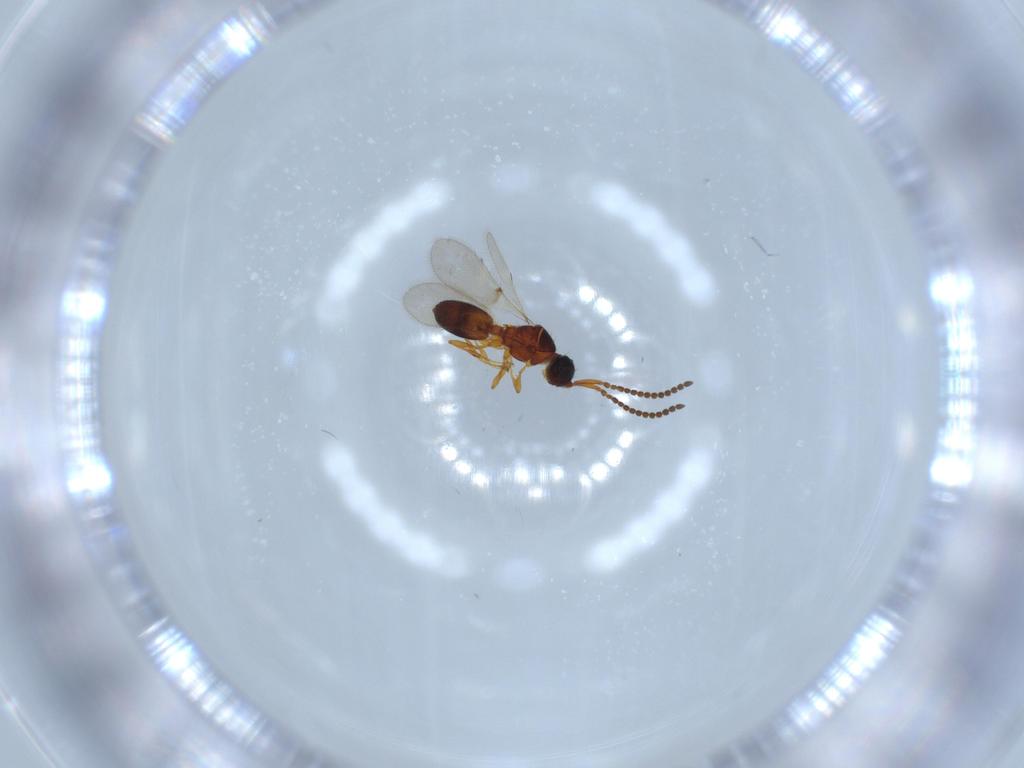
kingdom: Animalia
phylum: Arthropoda
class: Insecta
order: Hymenoptera
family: Diapriidae
